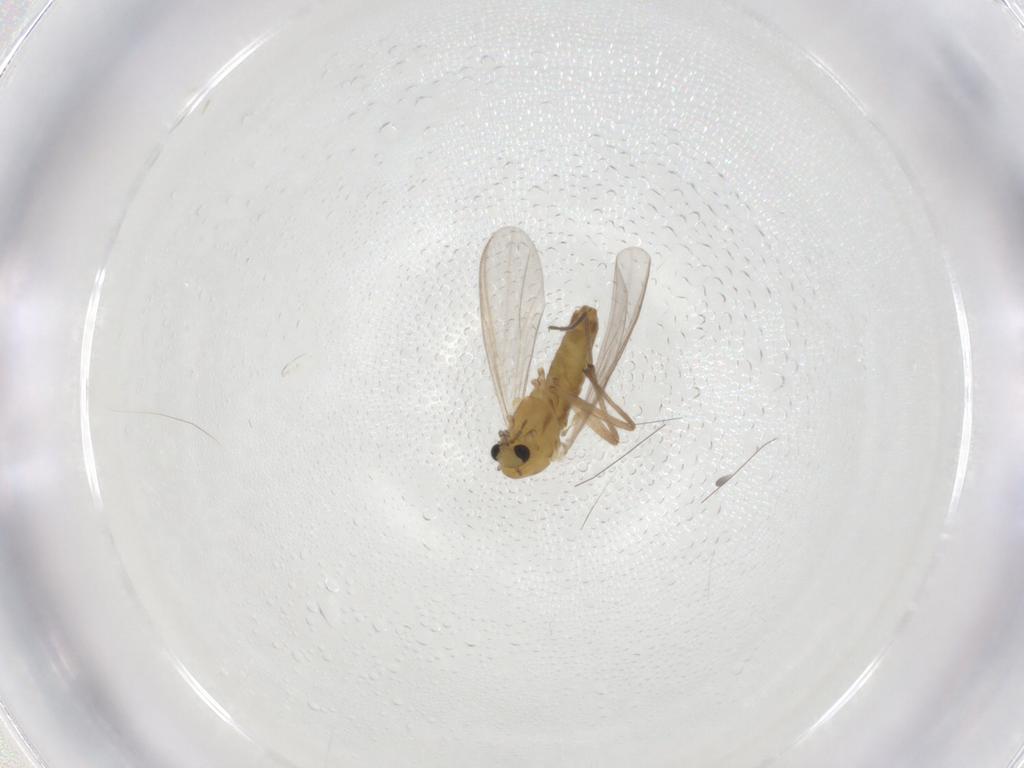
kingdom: Animalia
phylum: Arthropoda
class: Insecta
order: Diptera
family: Chironomidae
